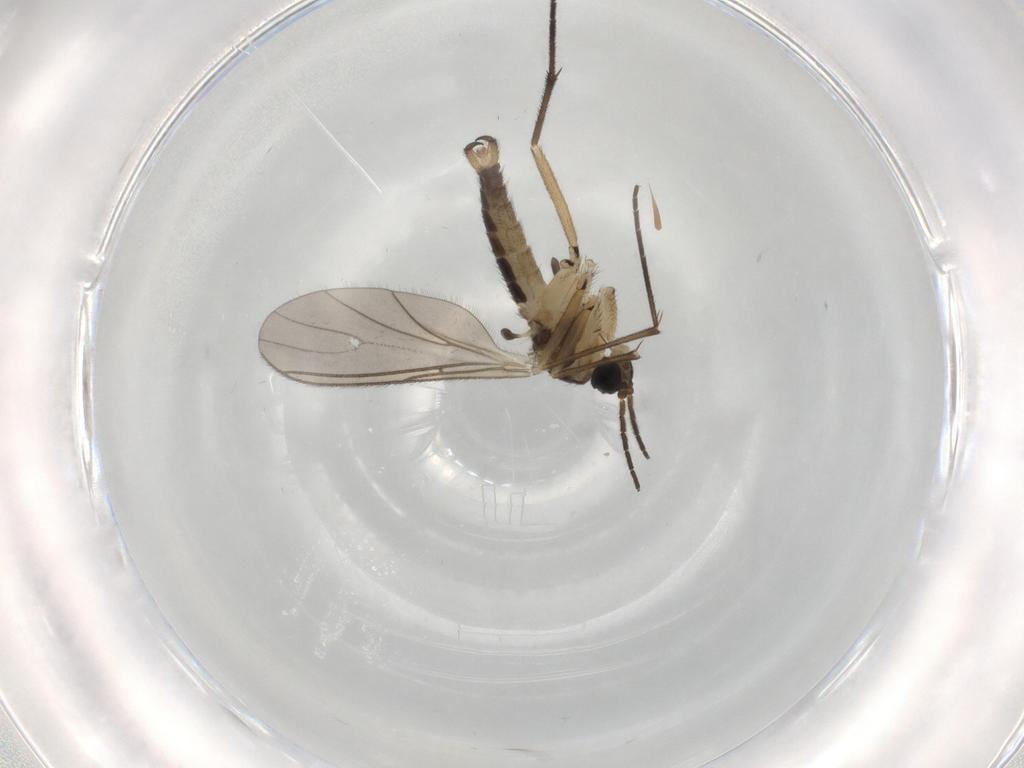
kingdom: Animalia
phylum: Arthropoda
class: Insecta
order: Diptera
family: Sciaridae
